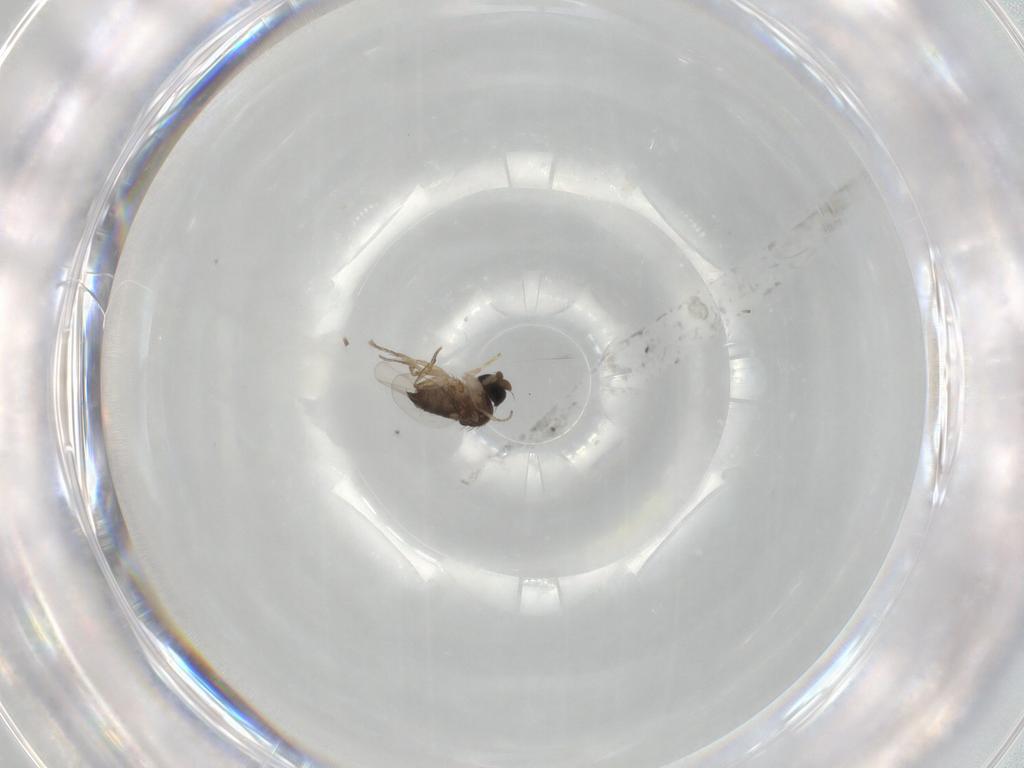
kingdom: Animalia
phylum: Arthropoda
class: Insecta
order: Diptera
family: Phoridae
